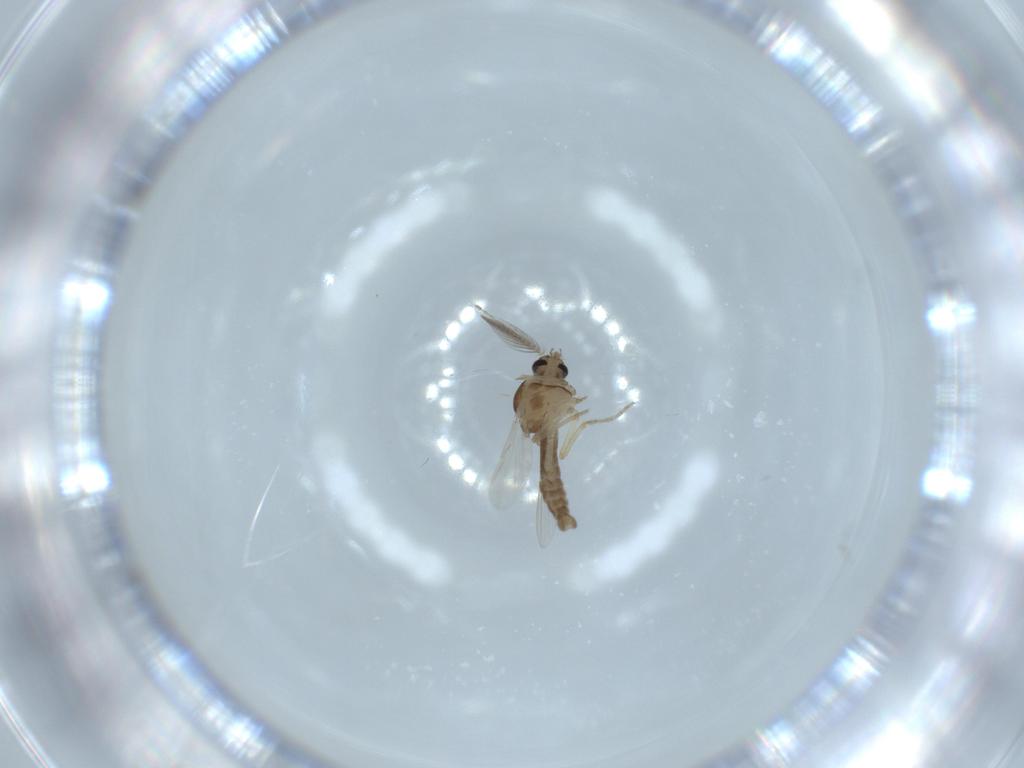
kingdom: Animalia
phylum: Arthropoda
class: Insecta
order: Diptera
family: Ceratopogonidae
